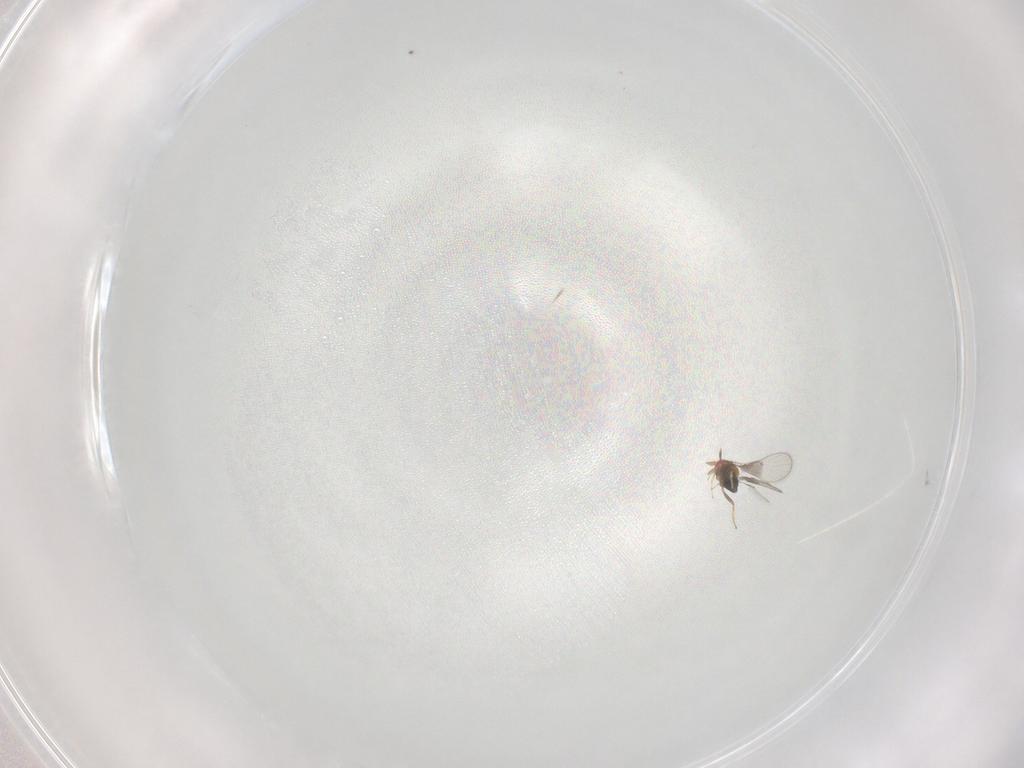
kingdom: Animalia
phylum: Arthropoda
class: Insecta
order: Hymenoptera
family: Trichogrammatidae
